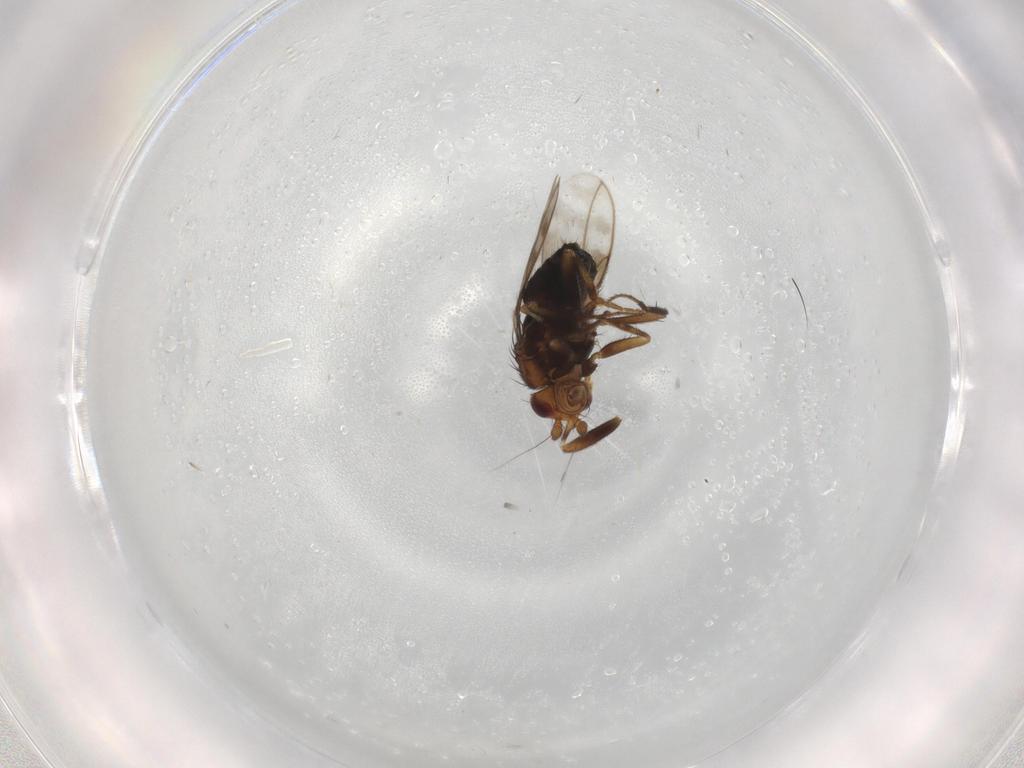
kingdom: Animalia
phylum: Arthropoda
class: Insecta
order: Diptera
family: Sphaeroceridae
